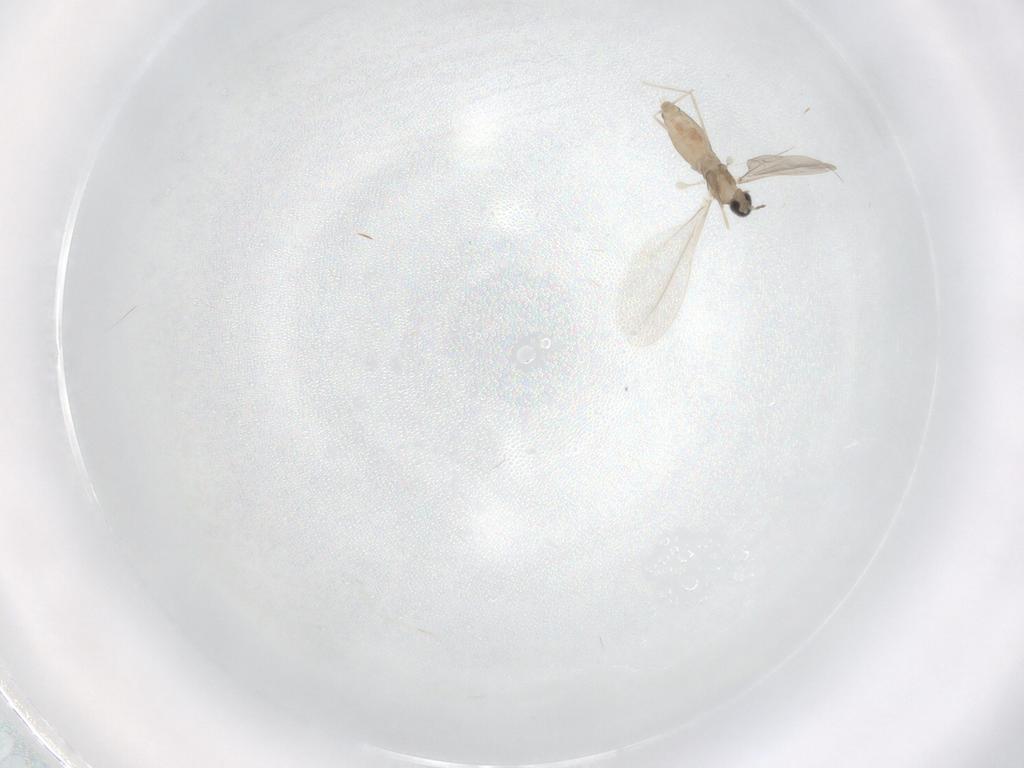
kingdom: Animalia
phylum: Arthropoda
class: Insecta
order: Diptera
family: Cecidomyiidae
